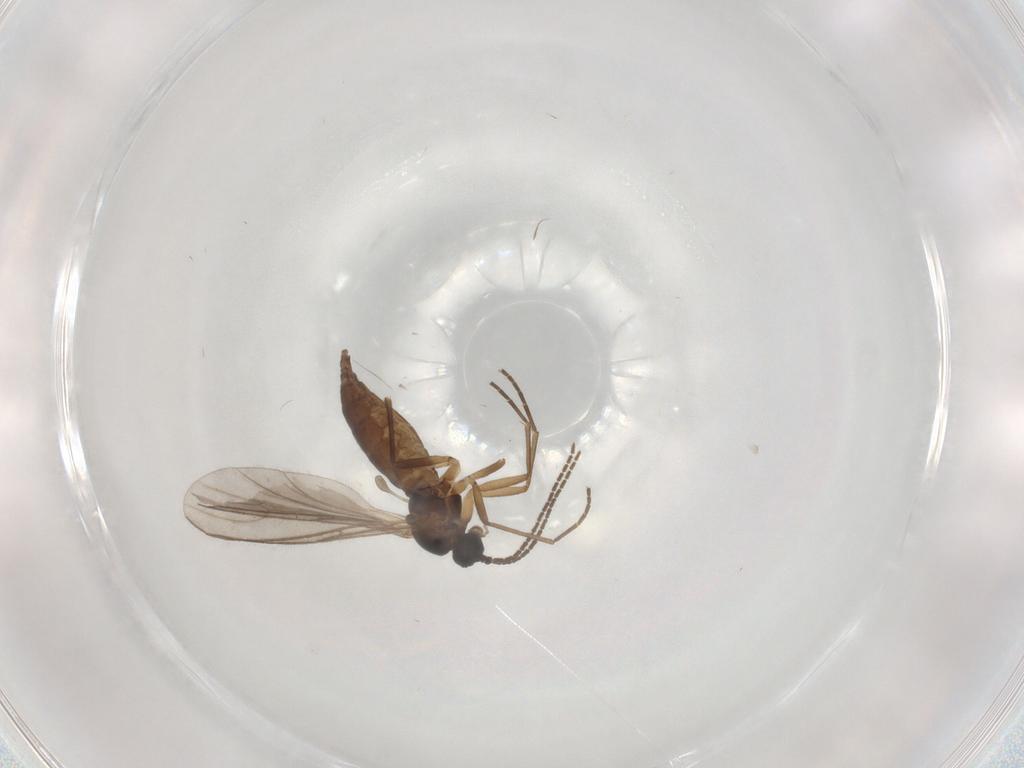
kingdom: Animalia
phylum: Arthropoda
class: Insecta
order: Diptera
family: Sciaridae
